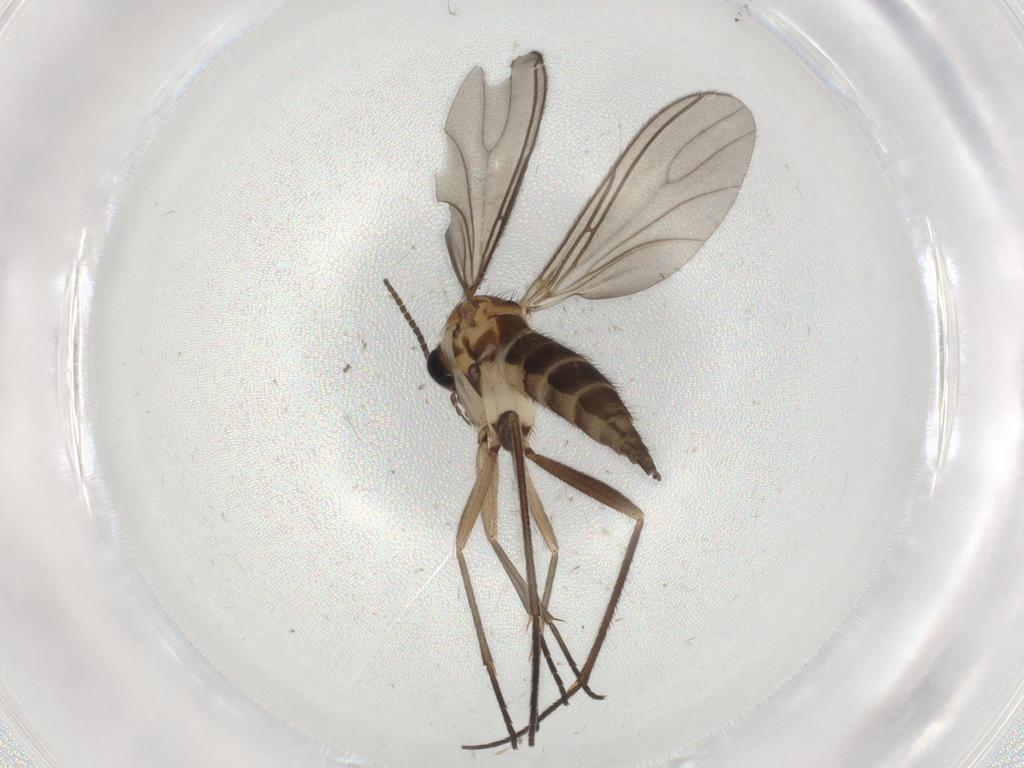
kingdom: Animalia
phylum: Arthropoda
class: Insecta
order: Diptera
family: Sciaridae
